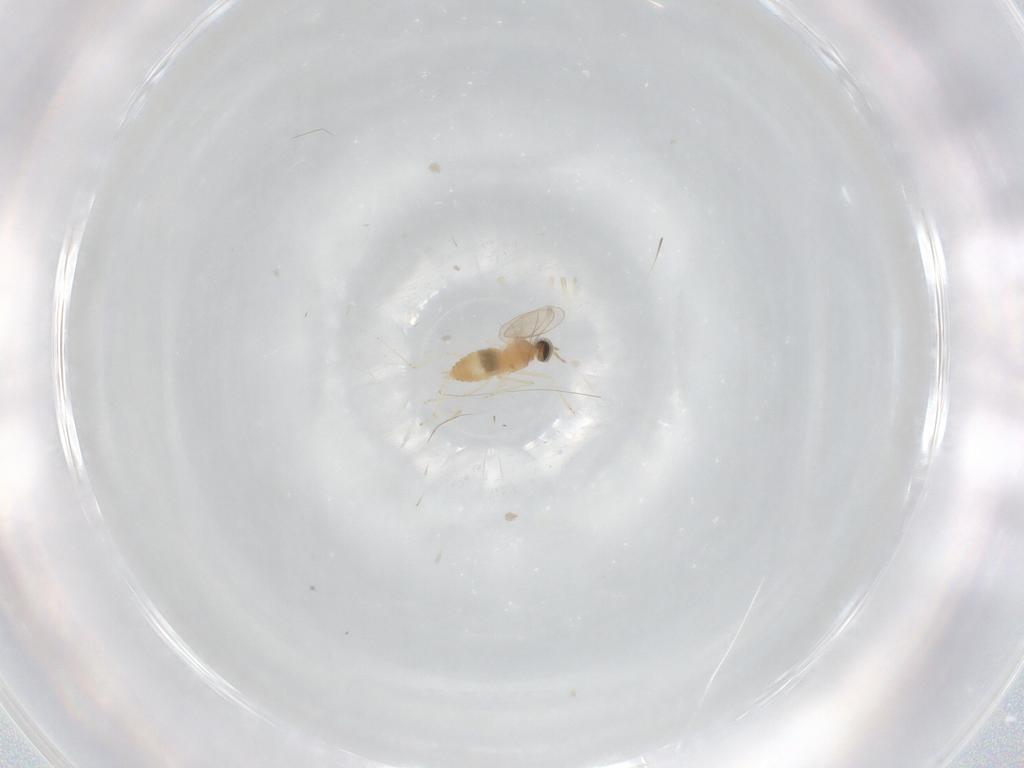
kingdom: Animalia
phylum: Arthropoda
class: Insecta
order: Diptera
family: Cecidomyiidae
